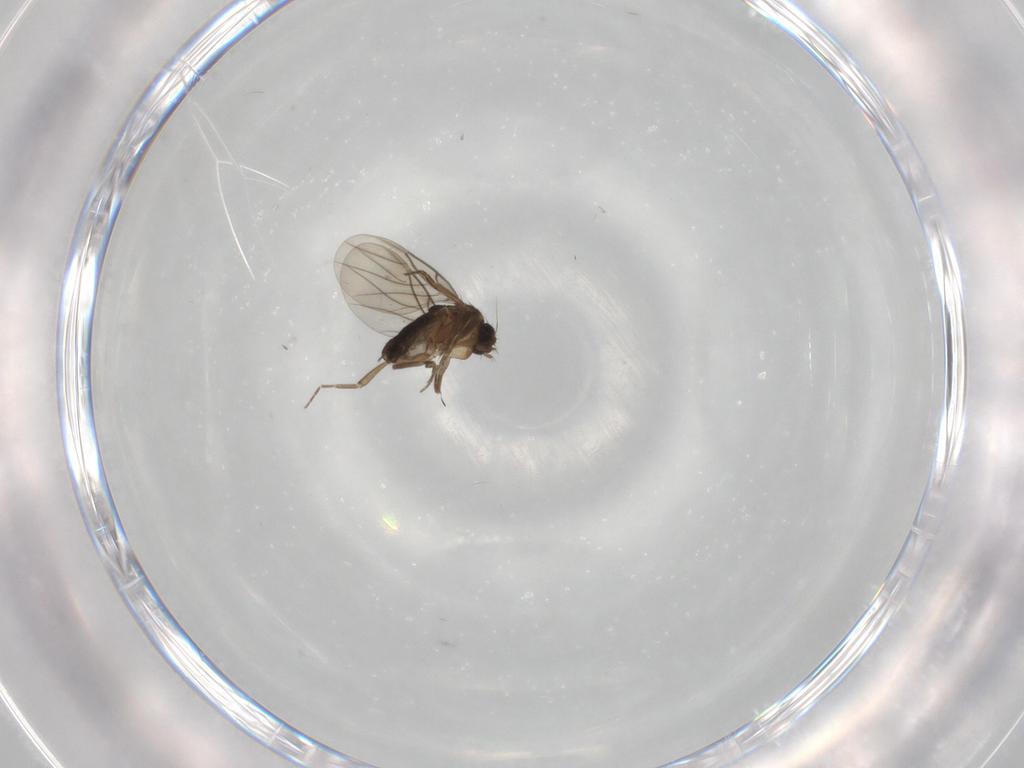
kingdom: Animalia
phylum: Arthropoda
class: Insecta
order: Diptera
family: Phoridae
